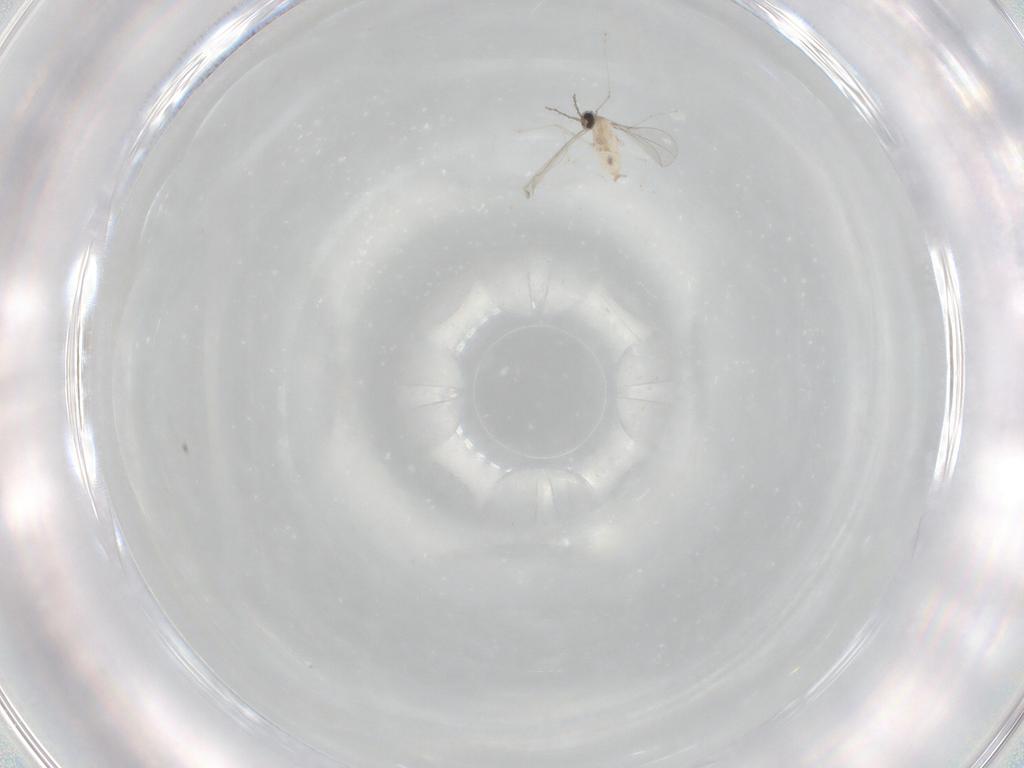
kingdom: Animalia
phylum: Arthropoda
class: Insecta
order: Diptera
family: Cecidomyiidae
